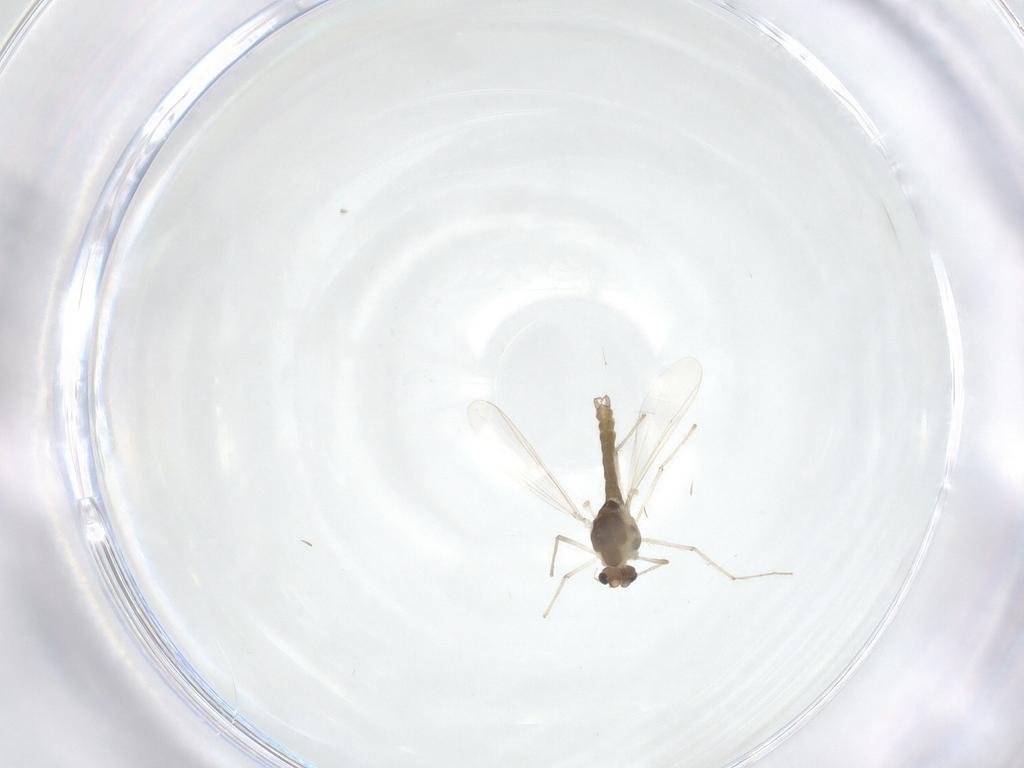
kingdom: Animalia
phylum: Arthropoda
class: Insecta
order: Diptera
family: Chironomidae
